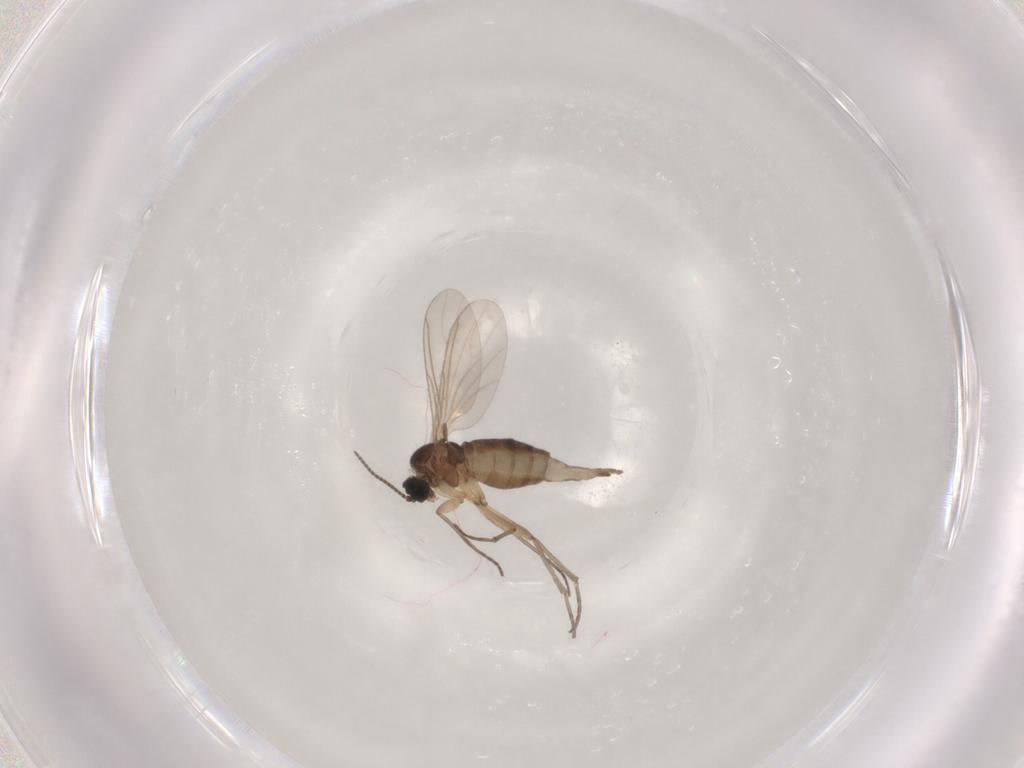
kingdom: Animalia
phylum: Arthropoda
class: Insecta
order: Diptera
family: Sciaridae
